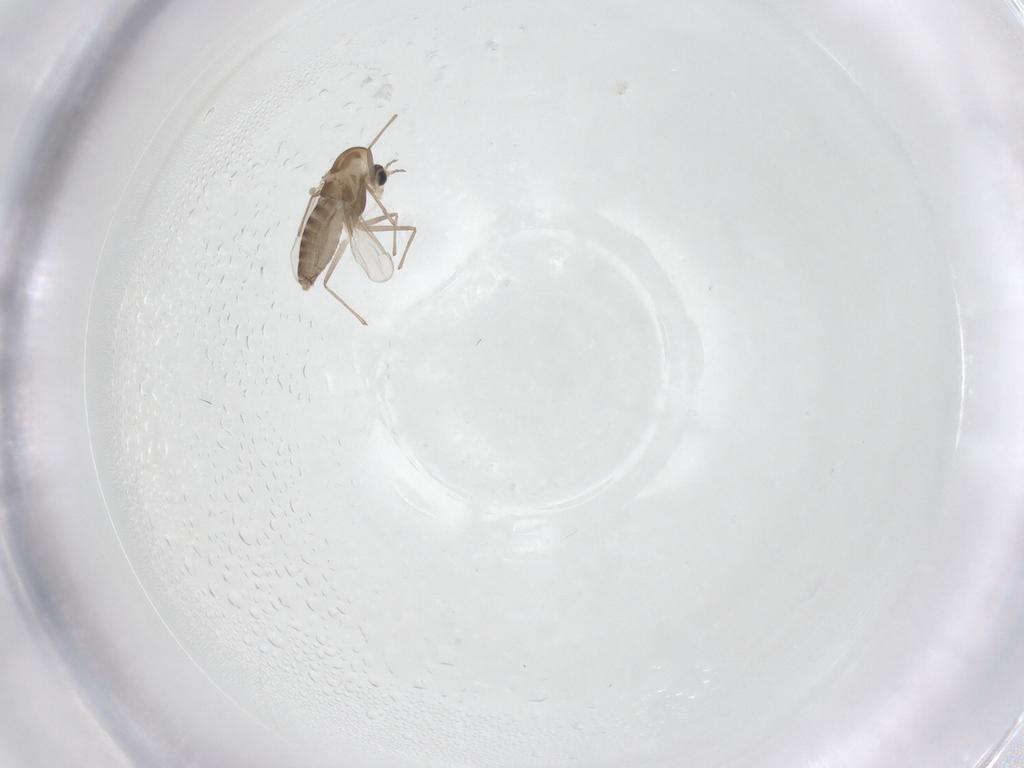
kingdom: Animalia
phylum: Arthropoda
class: Insecta
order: Diptera
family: Chironomidae
